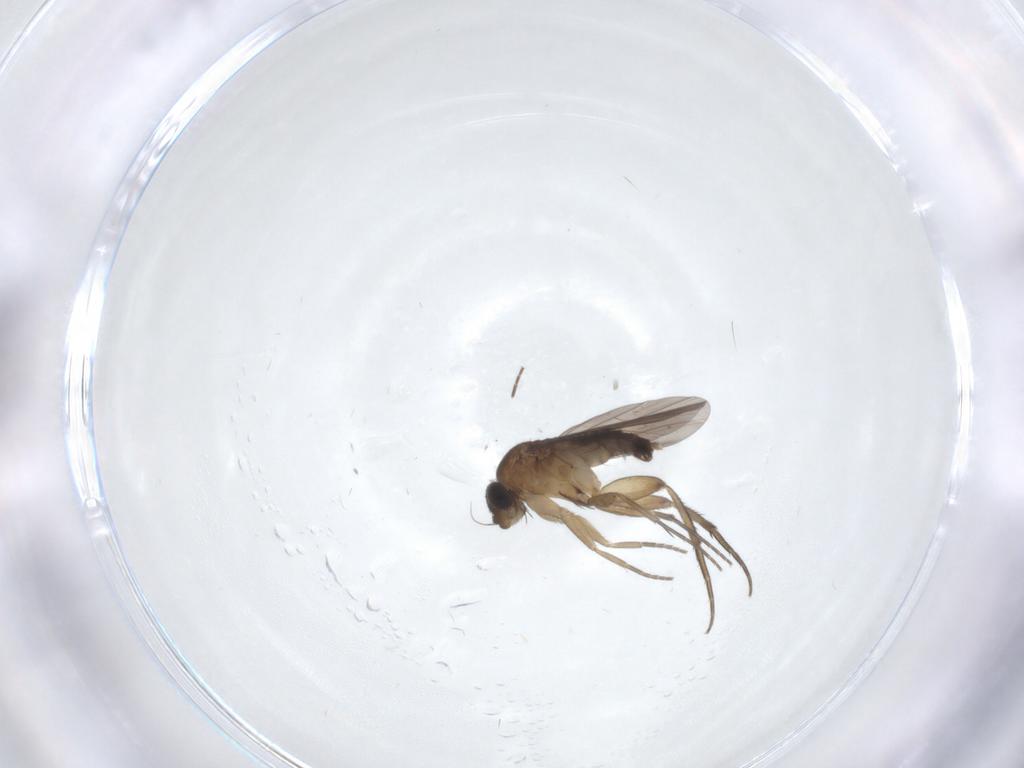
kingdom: Animalia
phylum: Arthropoda
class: Insecta
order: Diptera
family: Phoridae
